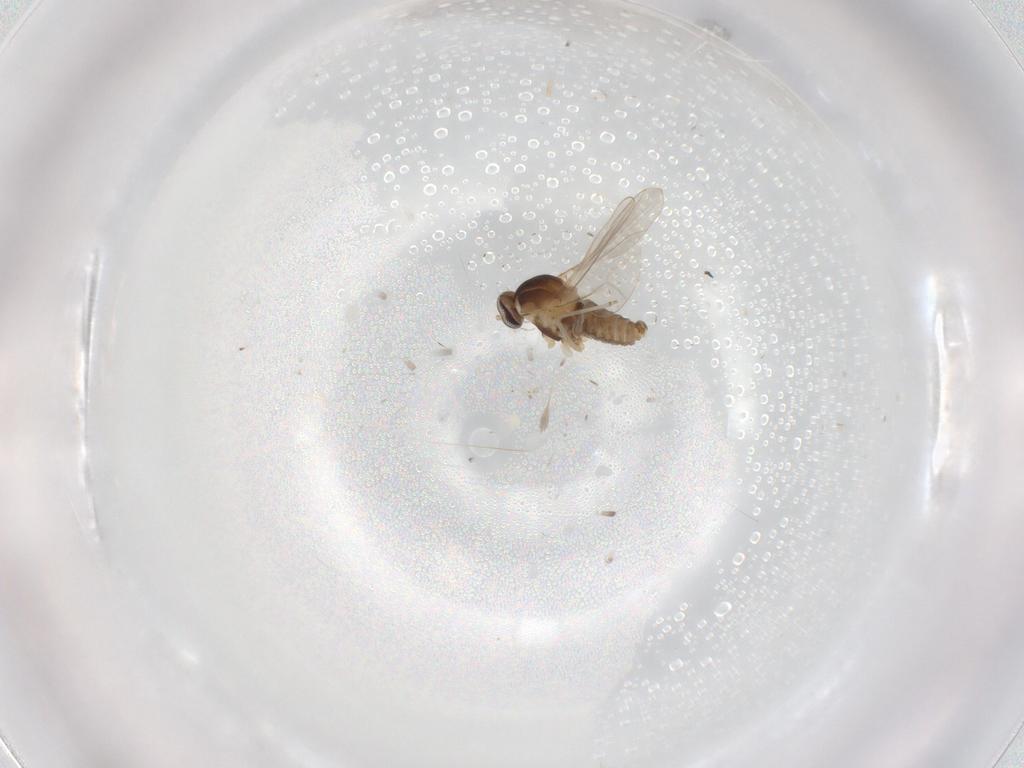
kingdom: Animalia
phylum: Arthropoda
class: Insecta
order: Diptera
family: Cecidomyiidae
